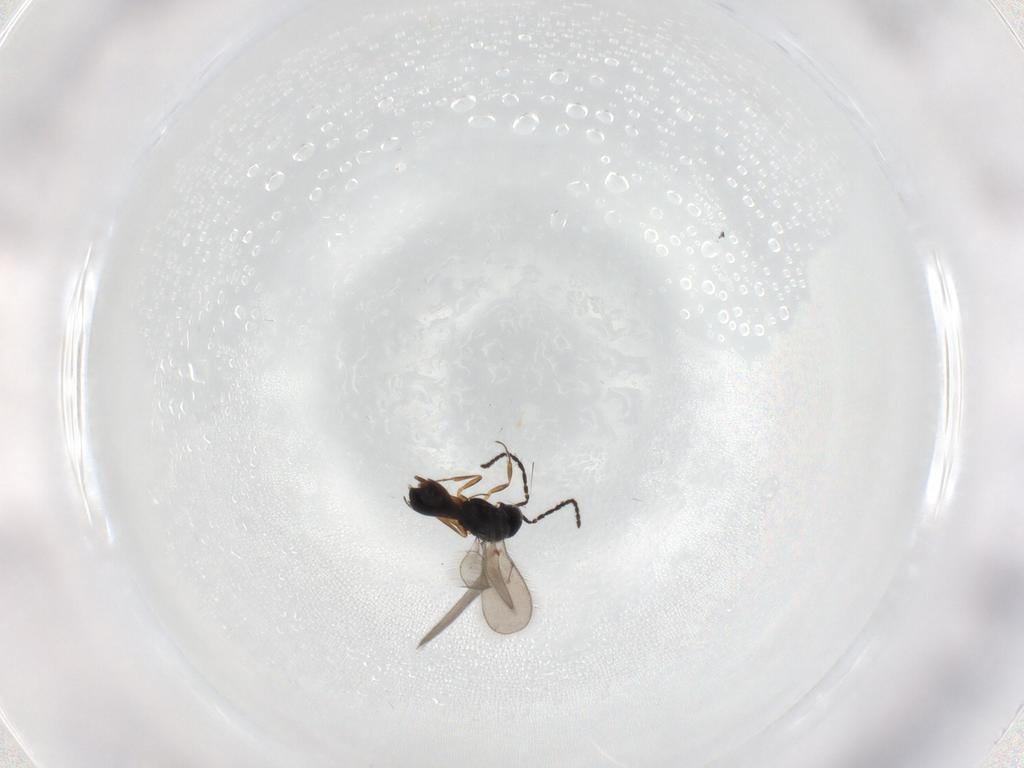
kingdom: Animalia
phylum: Arthropoda
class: Insecta
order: Hymenoptera
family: Scelionidae
